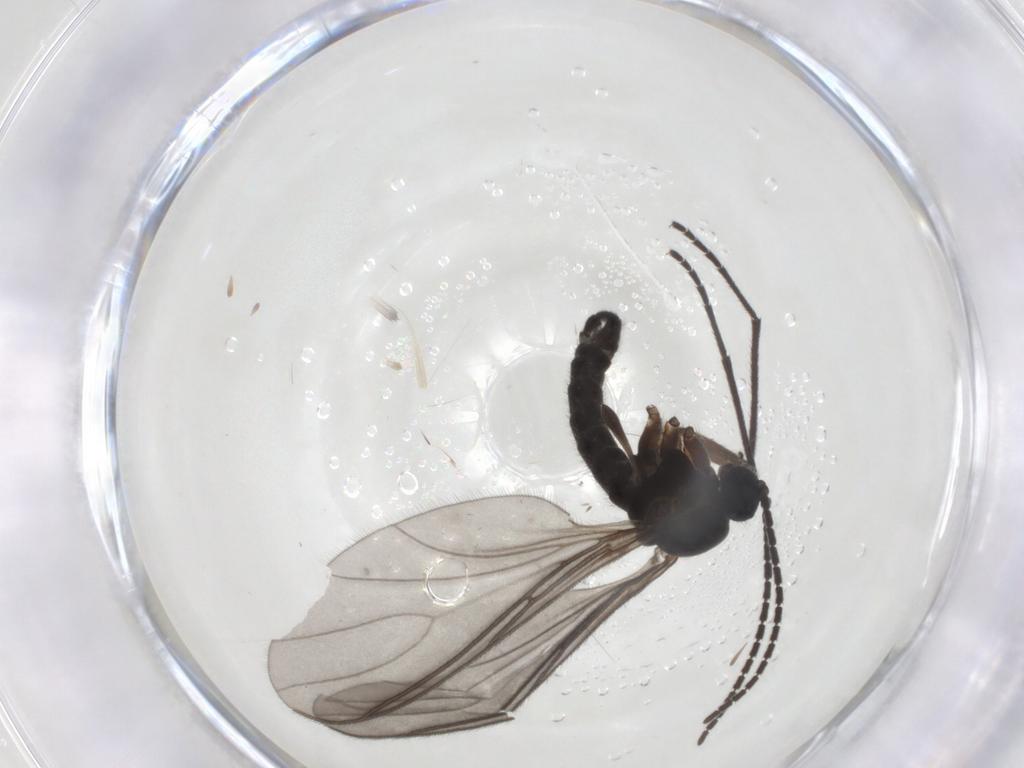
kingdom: Animalia
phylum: Arthropoda
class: Insecta
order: Diptera
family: Sciaridae
